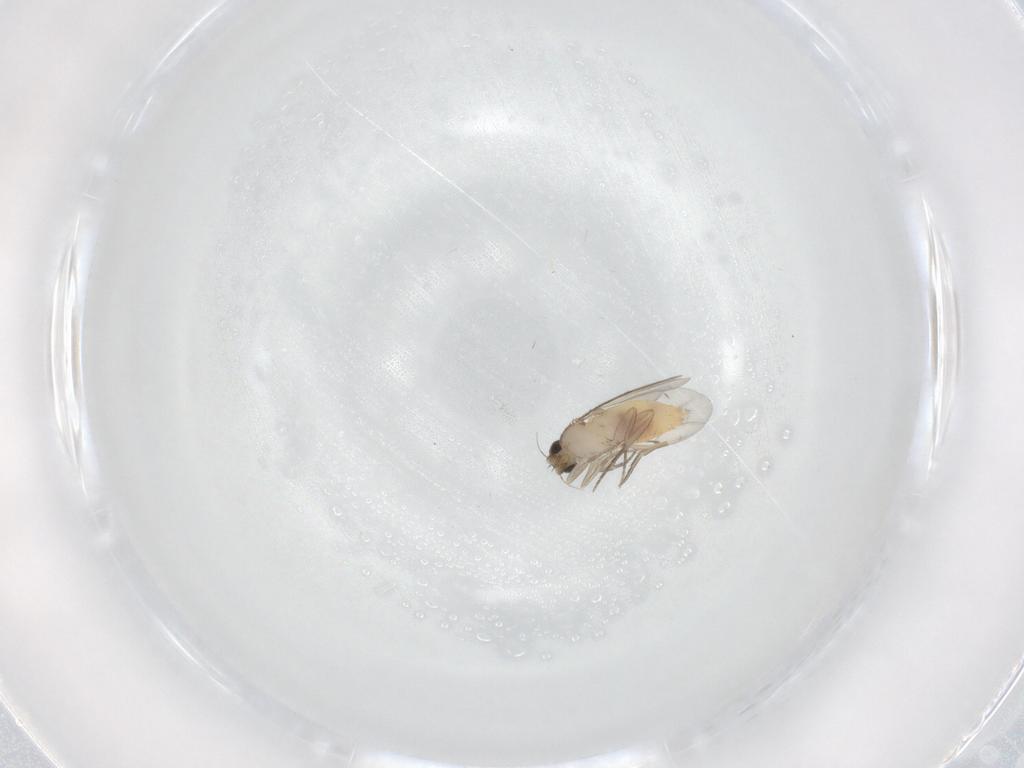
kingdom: Animalia
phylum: Arthropoda
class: Insecta
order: Diptera
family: Phoridae
